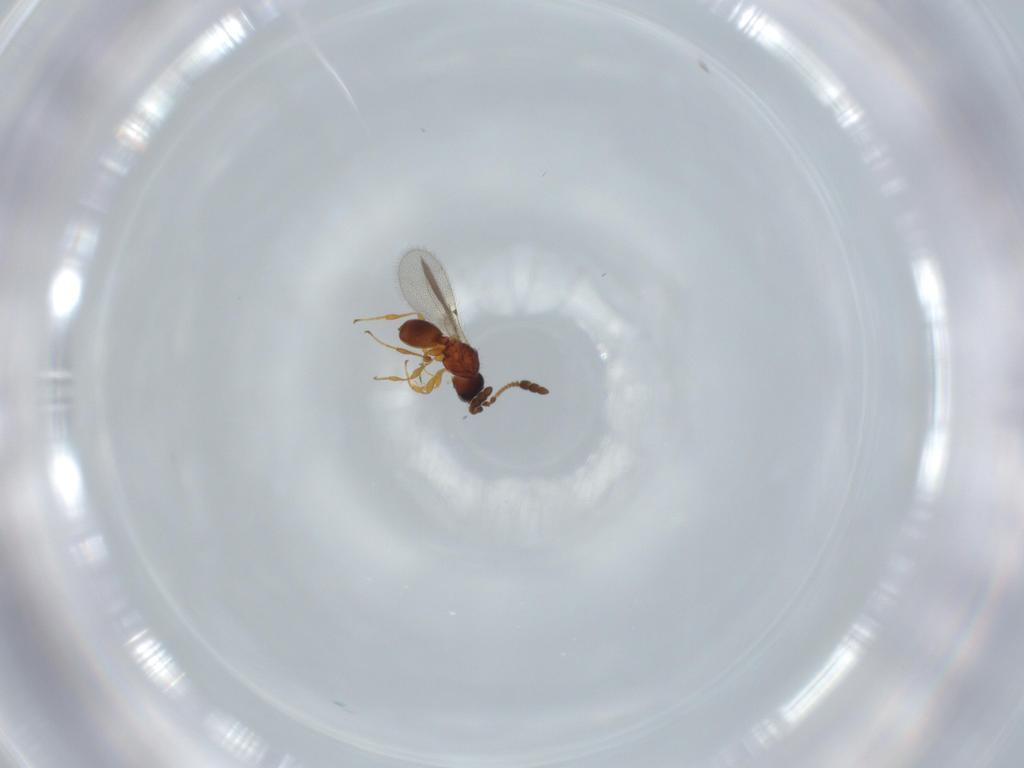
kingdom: Animalia
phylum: Arthropoda
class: Insecta
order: Hymenoptera
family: Diapriidae
